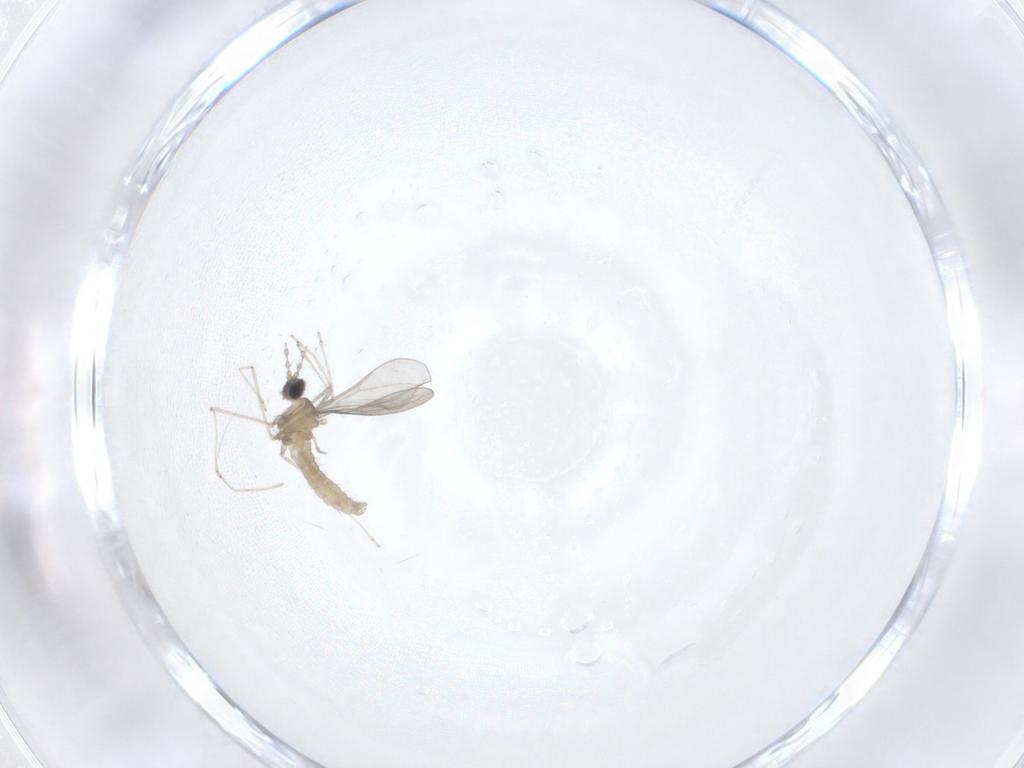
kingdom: Animalia
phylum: Arthropoda
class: Insecta
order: Diptera
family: Cecidomyiidae
